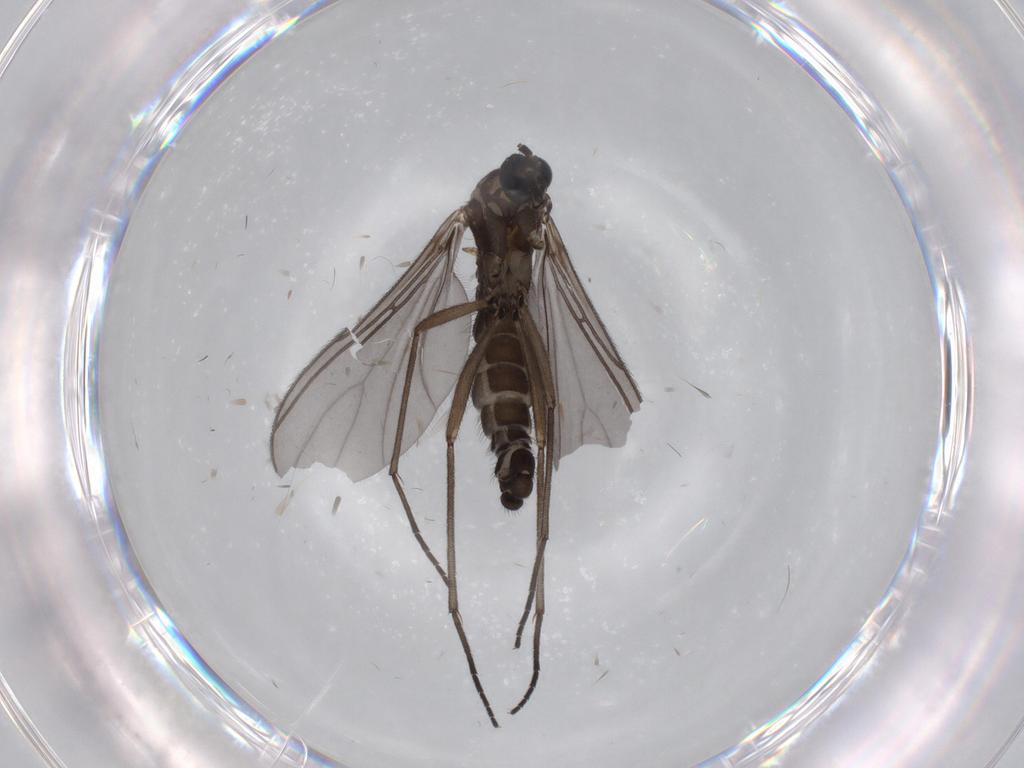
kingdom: Animalia
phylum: Arthropoda
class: Insecta
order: Diptera
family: Sciaridae
